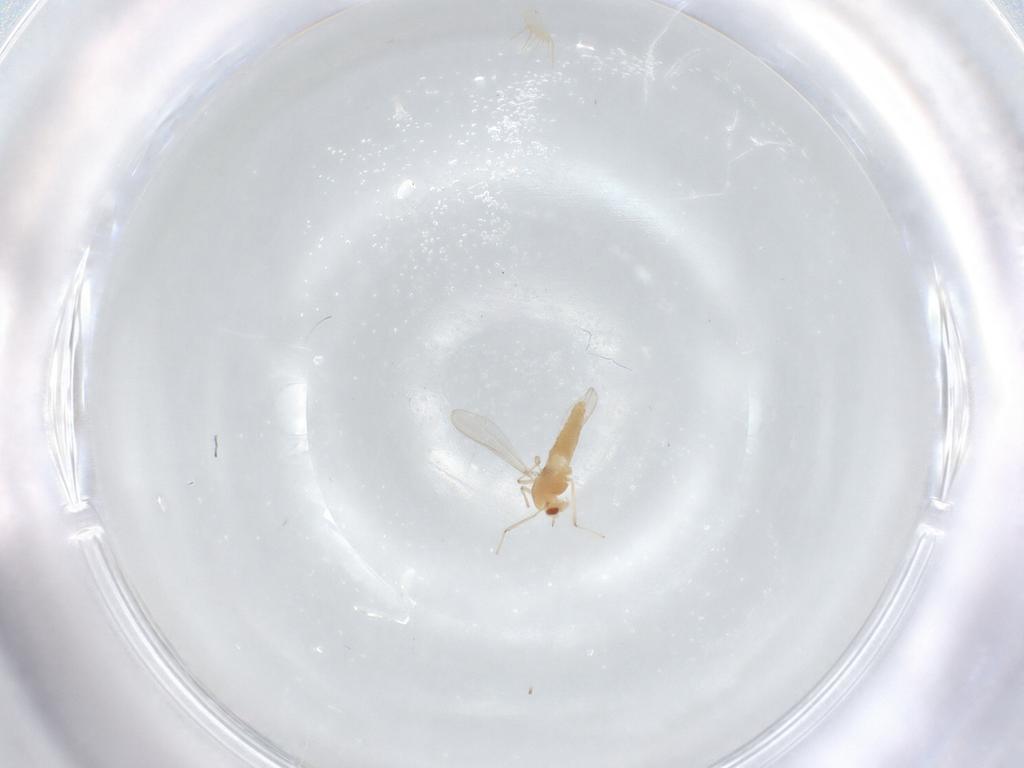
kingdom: Animalia
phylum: Arthropoda
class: Insecta
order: Diptera
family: Chironomidae
